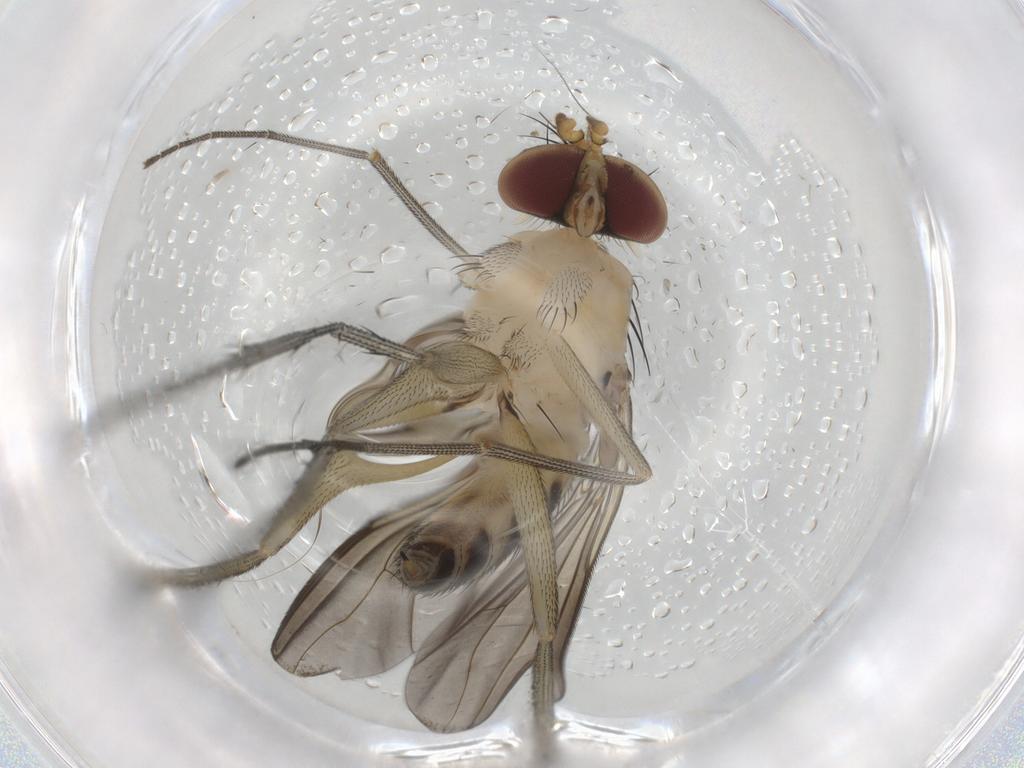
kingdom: Animalia
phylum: Arthropoda
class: Insecta
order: Diptera
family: Dolichopodidae
